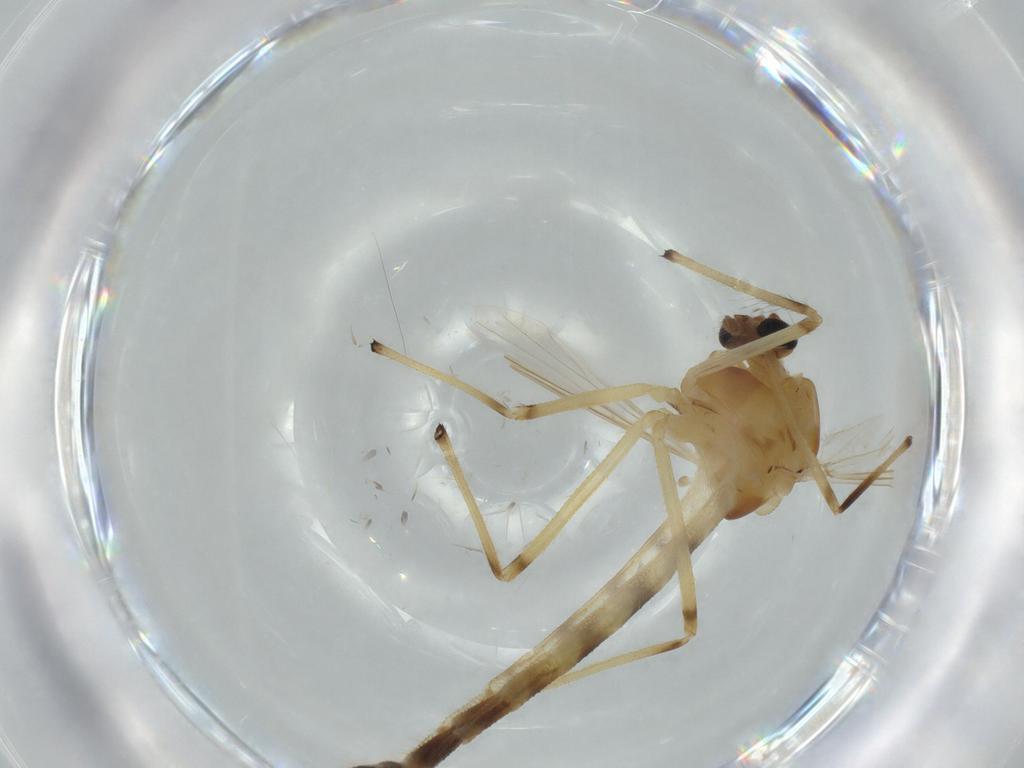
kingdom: Animalia
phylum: Arthropoda
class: Insecta
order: Diptera
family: Chironomidae
